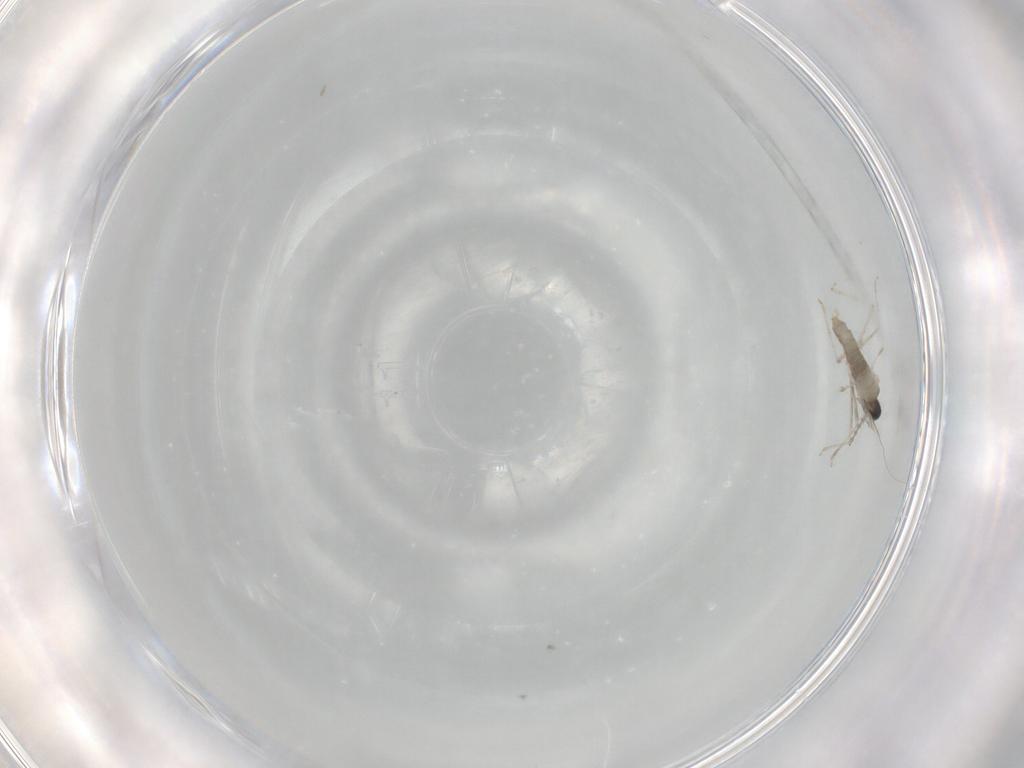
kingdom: Animalia
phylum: Arthropoda
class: Insecta
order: Diptera
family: Cecidomyiidae
